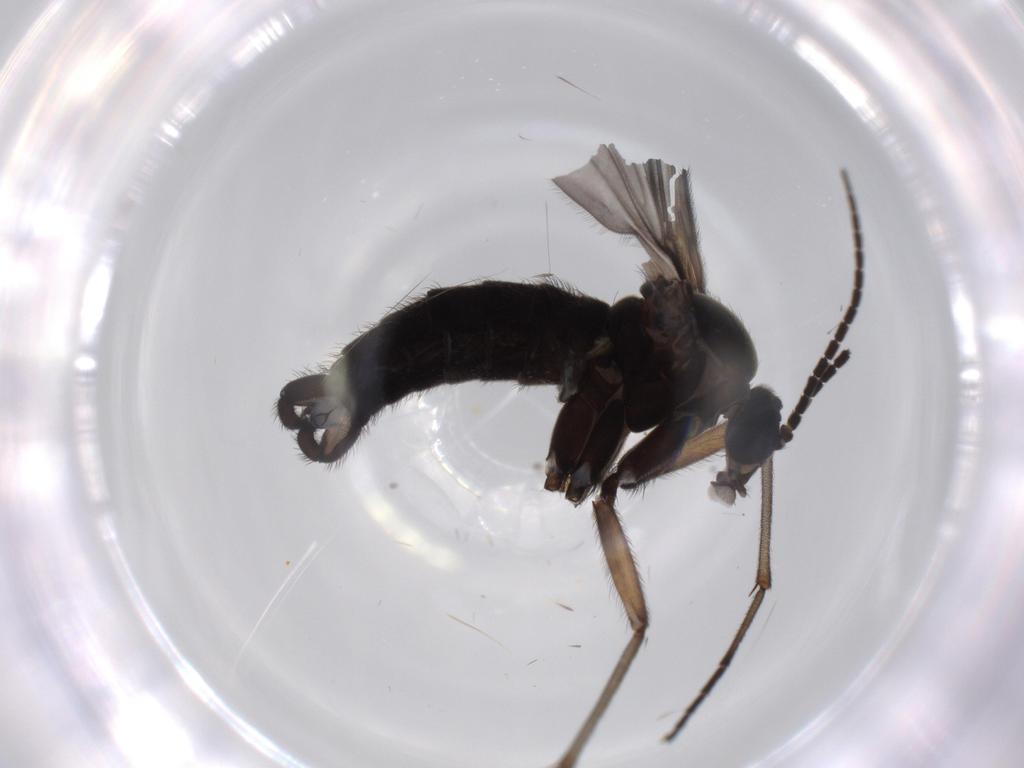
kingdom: Animalia
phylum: Arthropoda
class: Insecta
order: Diptera
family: Sciaridae
